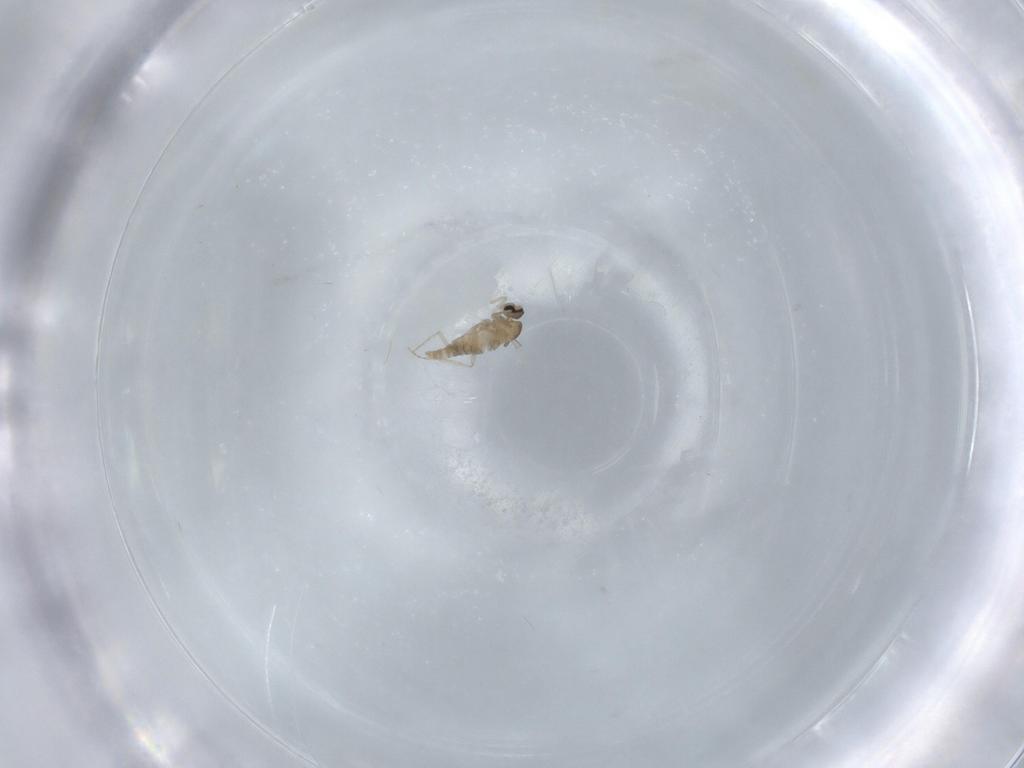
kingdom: Animalia
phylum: Arthropoda
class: Insecta
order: Diptera
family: Cecidomyiidae
